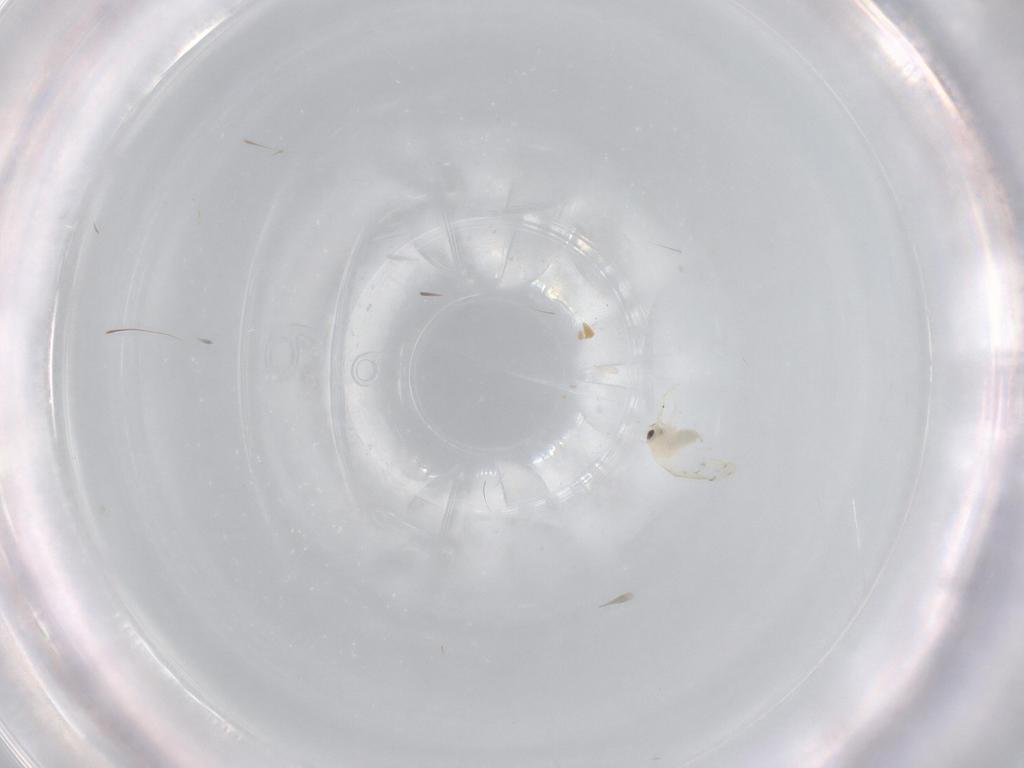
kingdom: Animalia
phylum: Arthropoda
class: Insecta
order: Hemiptera
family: Aleyrodidae
